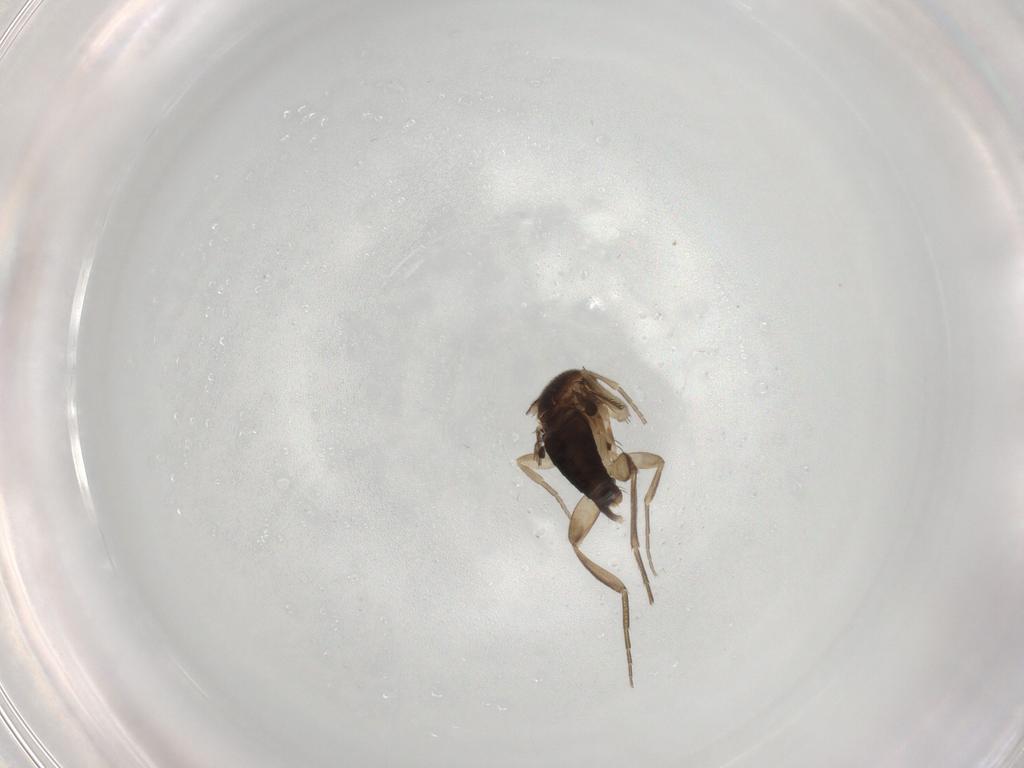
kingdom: Animalia
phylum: Arthropoda
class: Insecta
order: Diptera
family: Phoridae
